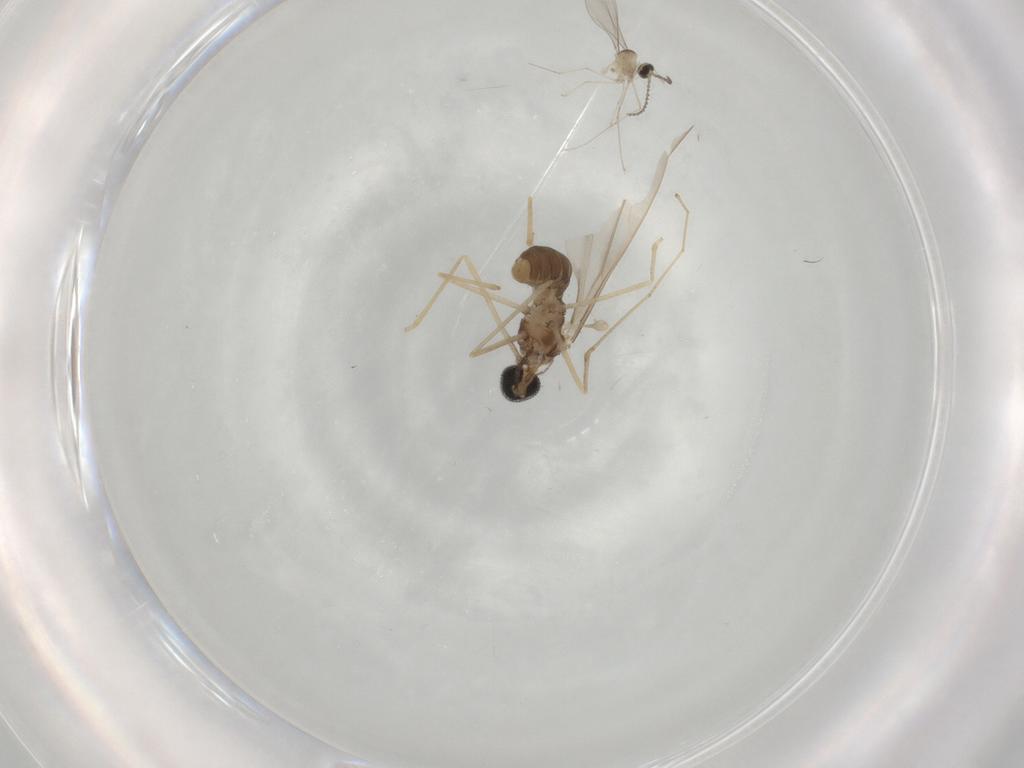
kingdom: Animalia
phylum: Arthropoda
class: Insecta
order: Diptera
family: Cecidomyiidae
